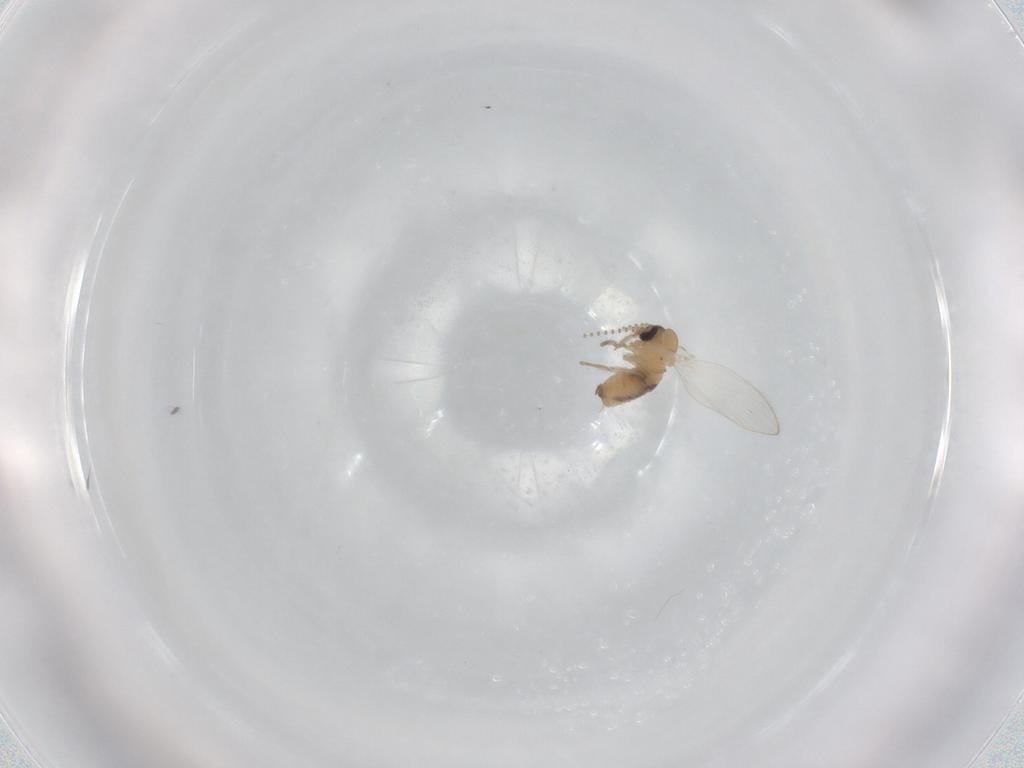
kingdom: Animalia
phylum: Arthropoda
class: Insecta
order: Diptera
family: Psychodidae
